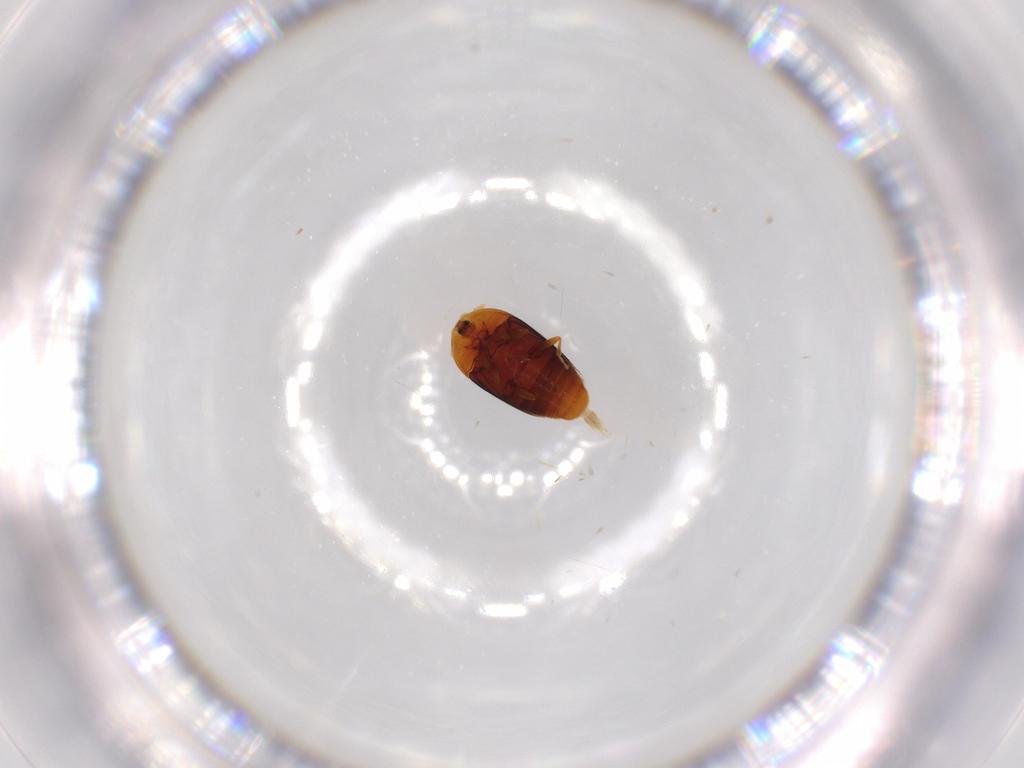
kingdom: Animalia
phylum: Arthropoda
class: Insecta
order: Coleoptera
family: Corylophidae
